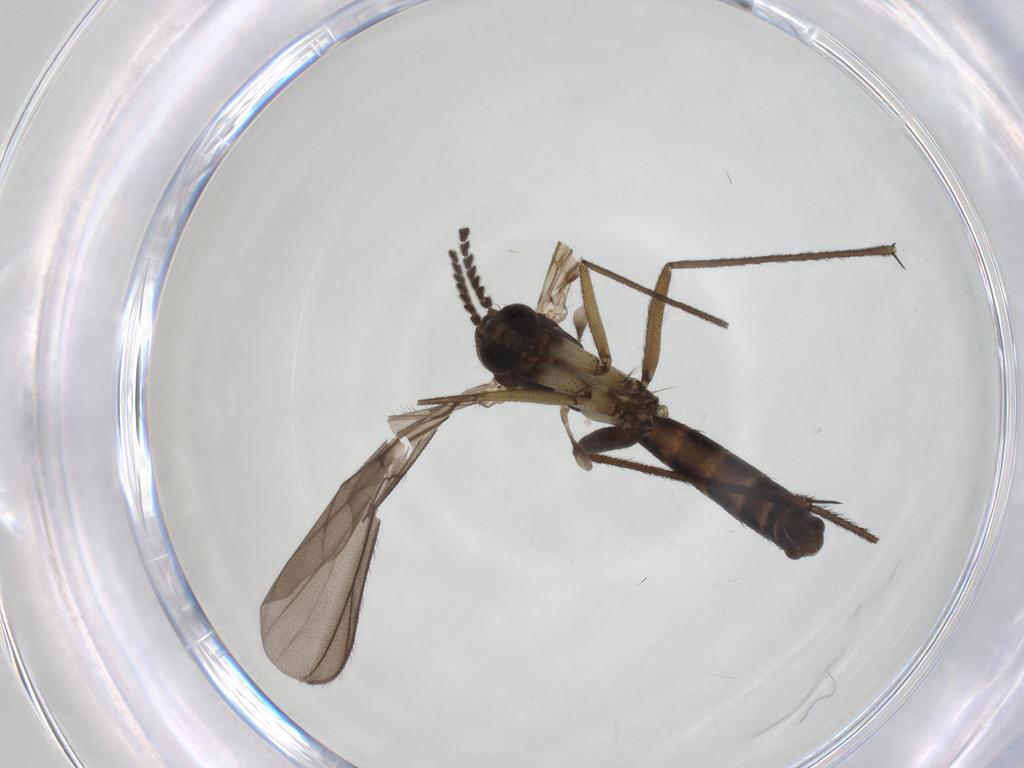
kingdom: Animalia
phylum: Arthropoda
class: Insecta
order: Diptera
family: Ditomyiidae
